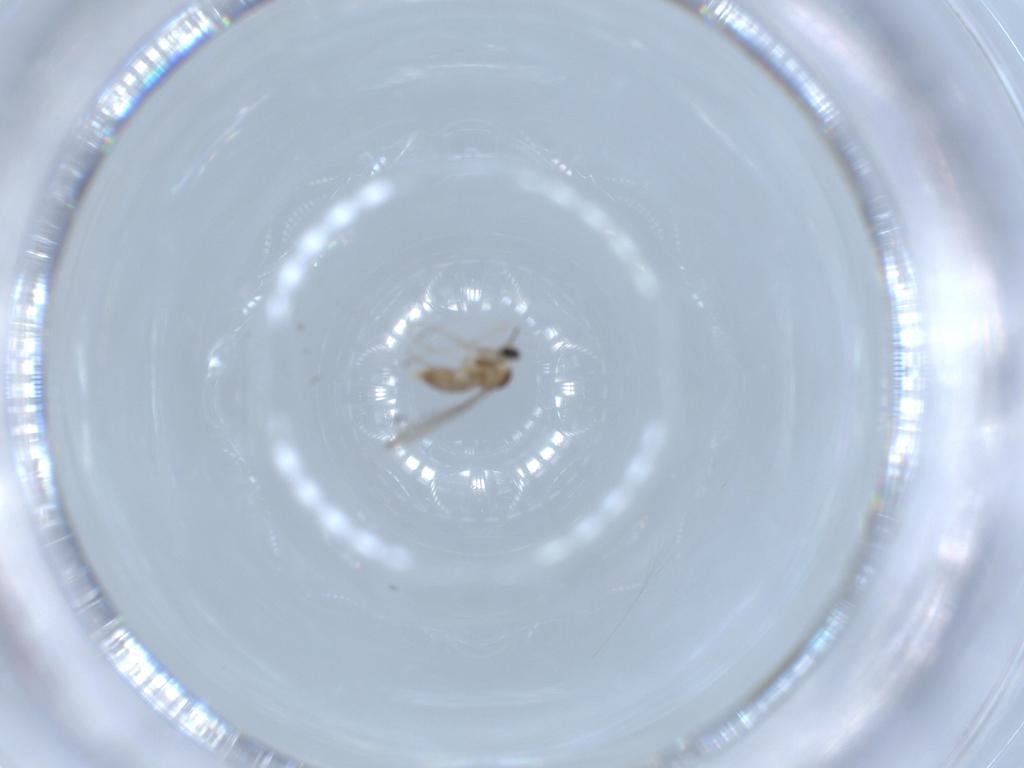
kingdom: Animalia
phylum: Arthropoda
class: Insecta
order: Diptera
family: Cecidomyiidae
